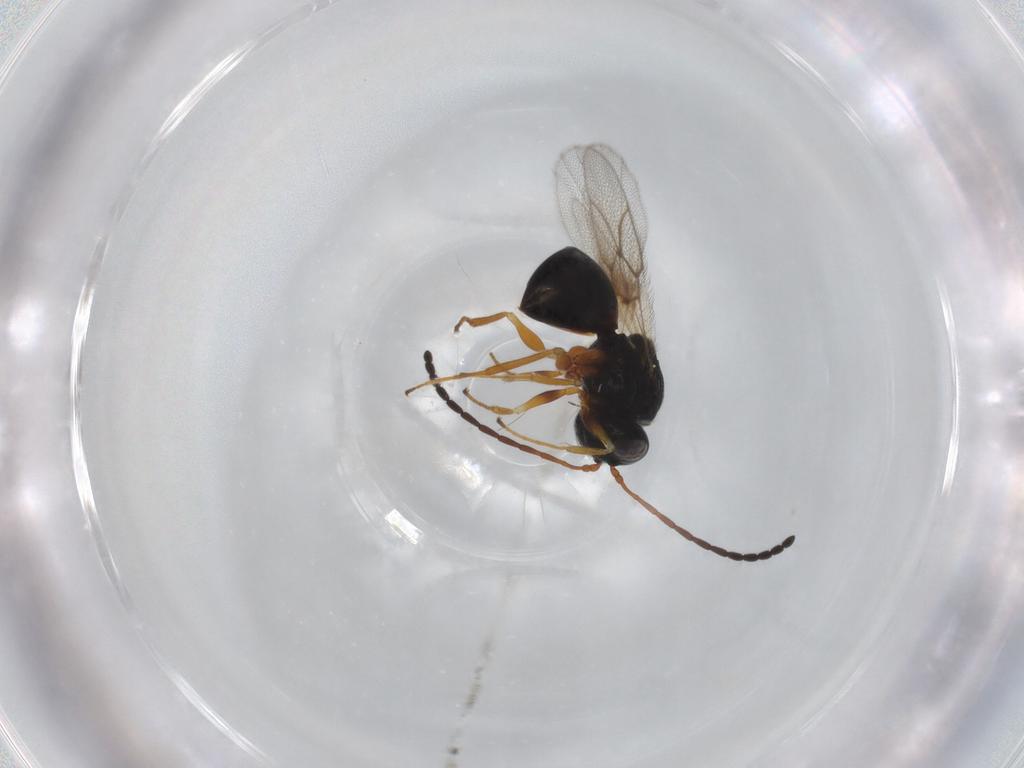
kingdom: Animalia
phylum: Arthropoda
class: Insecta
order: Hymenoptera
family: Figitidae
